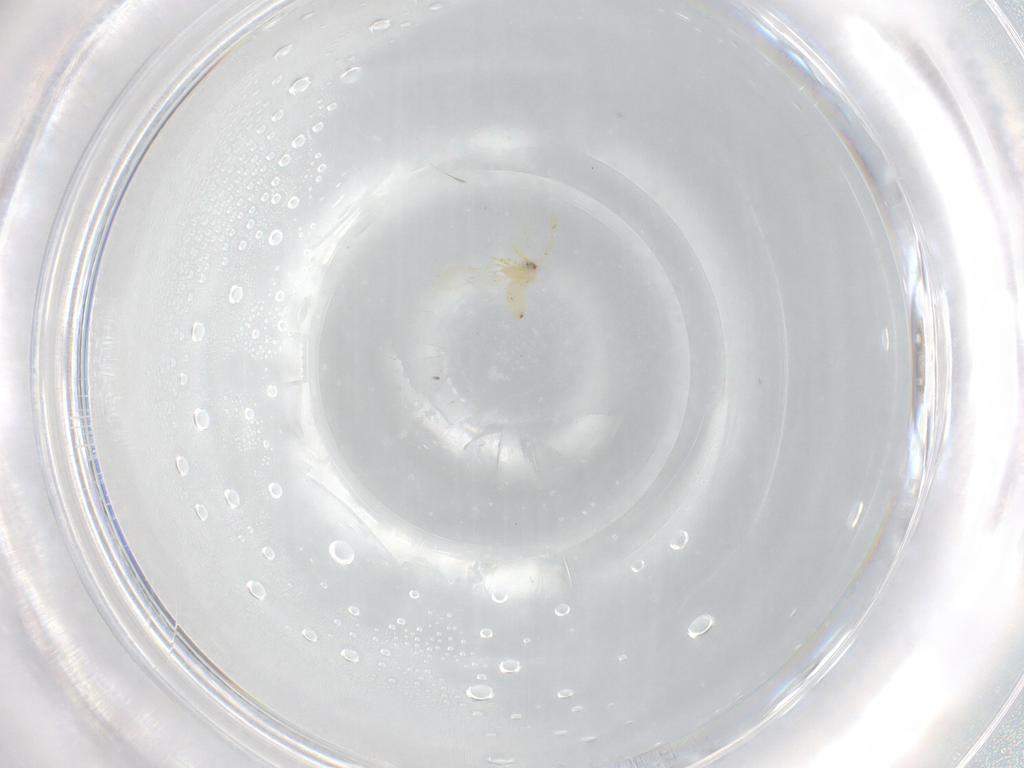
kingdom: Animalia
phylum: Arthropoda
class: Insecta
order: Hemiptera
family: Aleyrodidae
